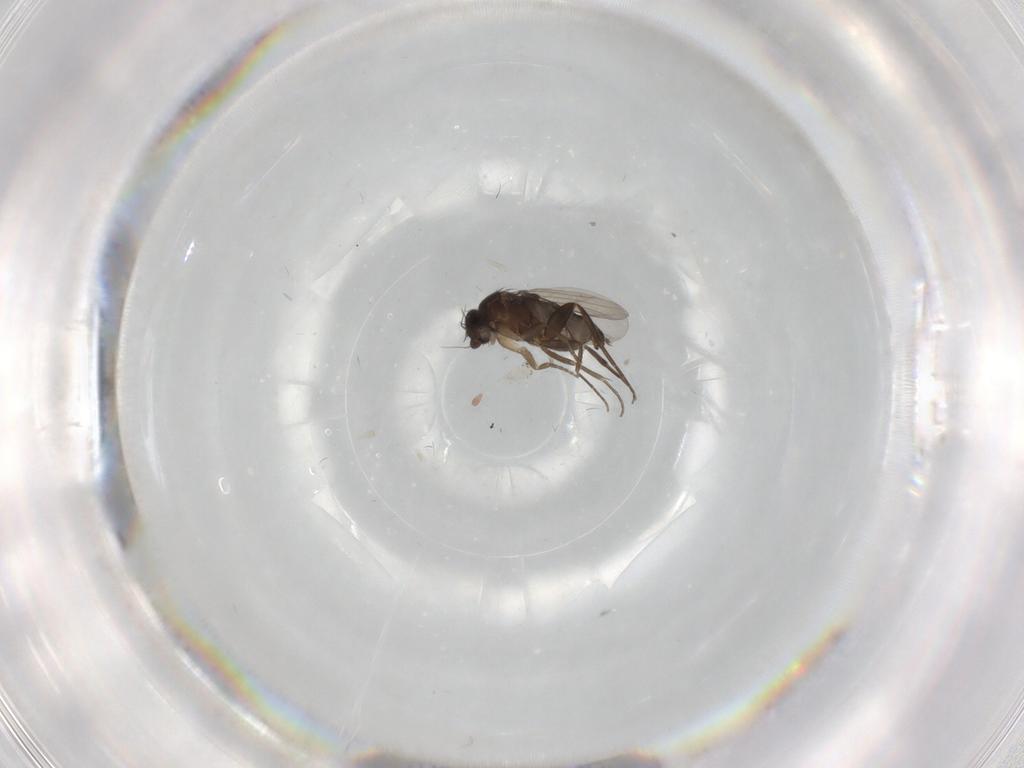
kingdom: Animalia
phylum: Arthropoda
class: Insecta
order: Diptera
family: Phoridae
